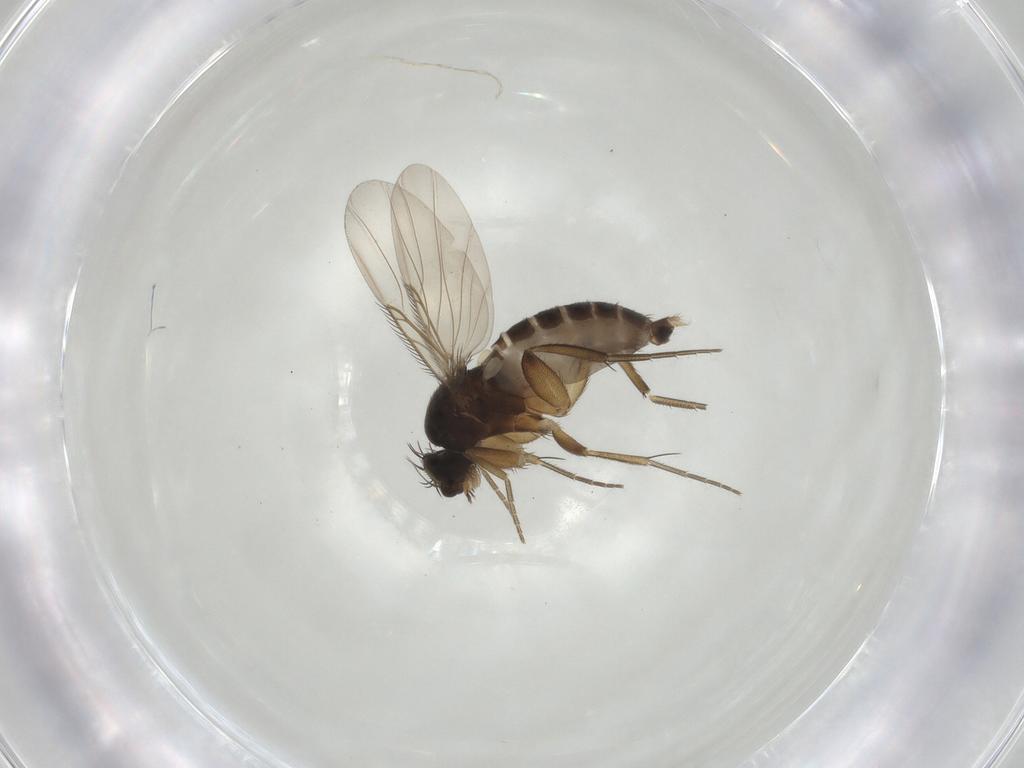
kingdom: Animalia
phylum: Arthropoda
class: Insecta
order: Diptera
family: Phoridae
